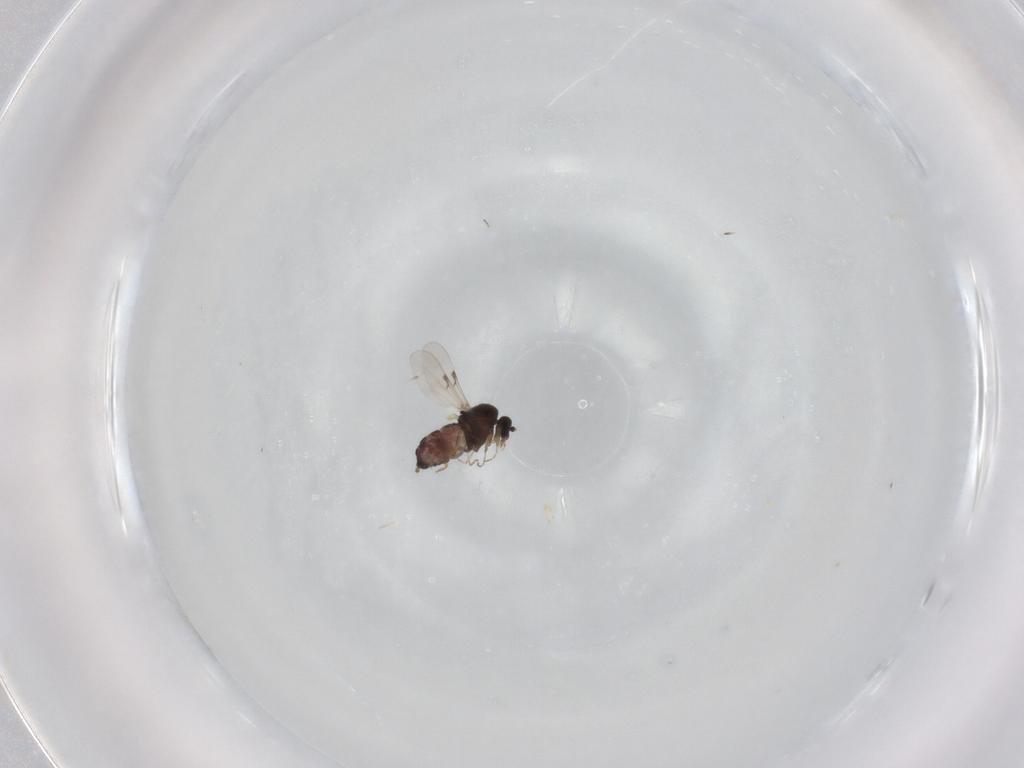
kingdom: Animalia
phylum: Arthropoda
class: Insecta
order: Diptera
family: Ceratopogonidae
